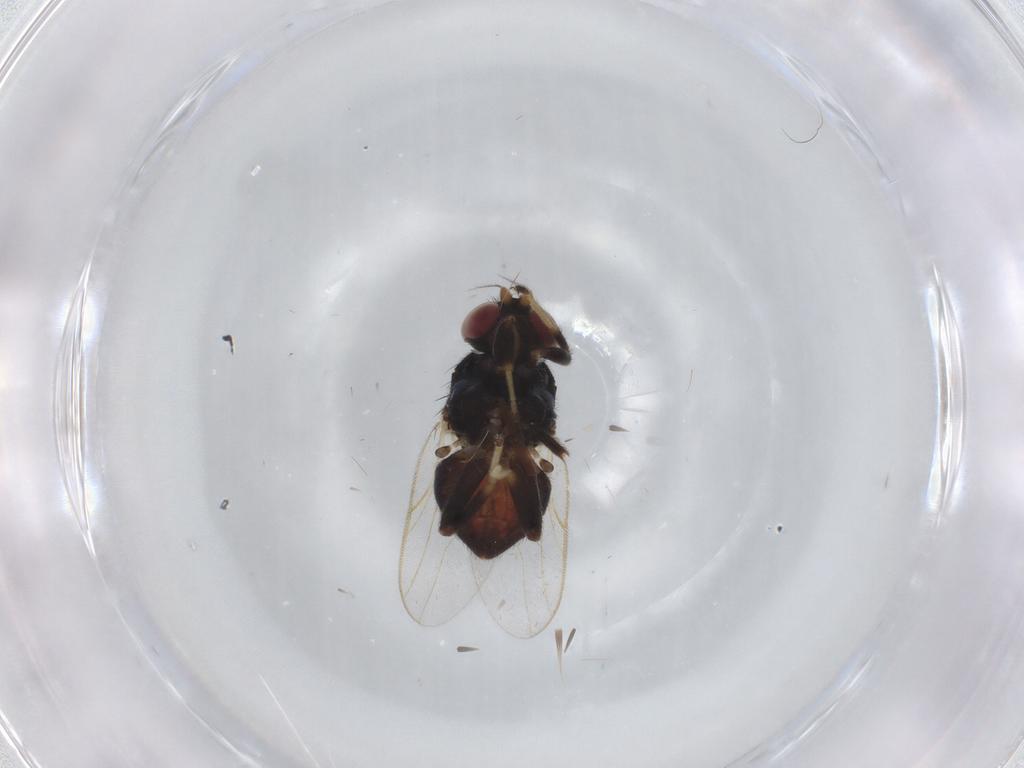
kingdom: Animalia
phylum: Arthropoda
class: Insecta
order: Diptera
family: Chloropidae
